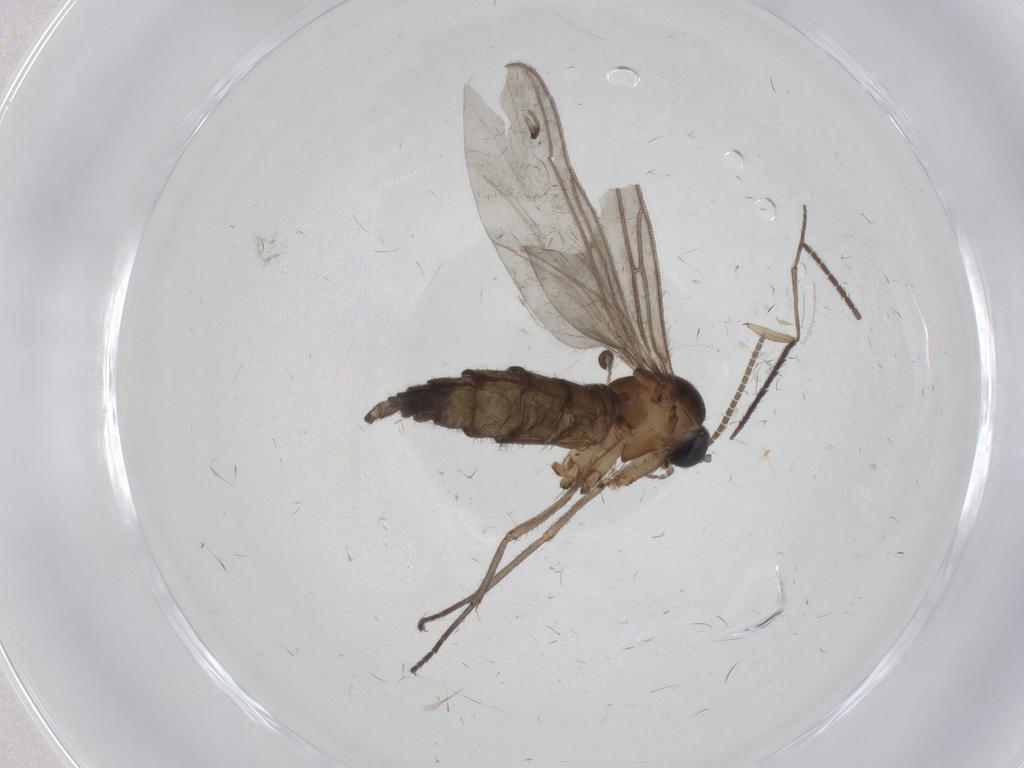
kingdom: Animalia
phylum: Arthropoda
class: Insecta
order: Diptera
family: Sciaridae
